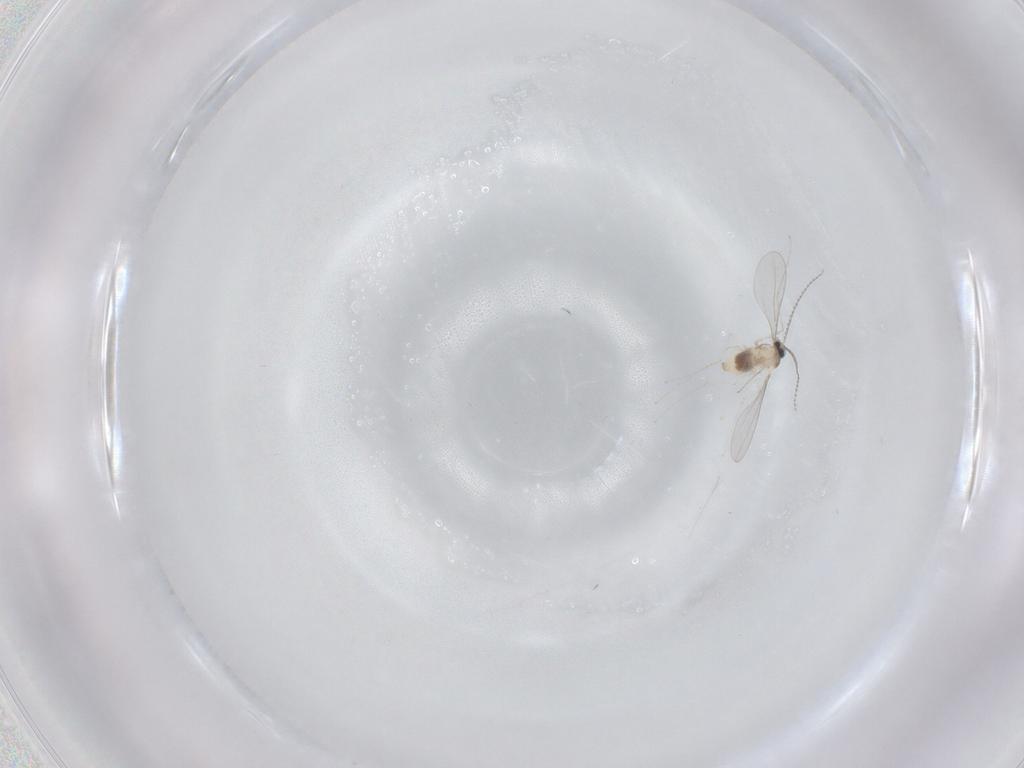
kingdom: Animalia
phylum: Arthropoda
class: Insecta
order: Diptera
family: Cecidomyiidae
